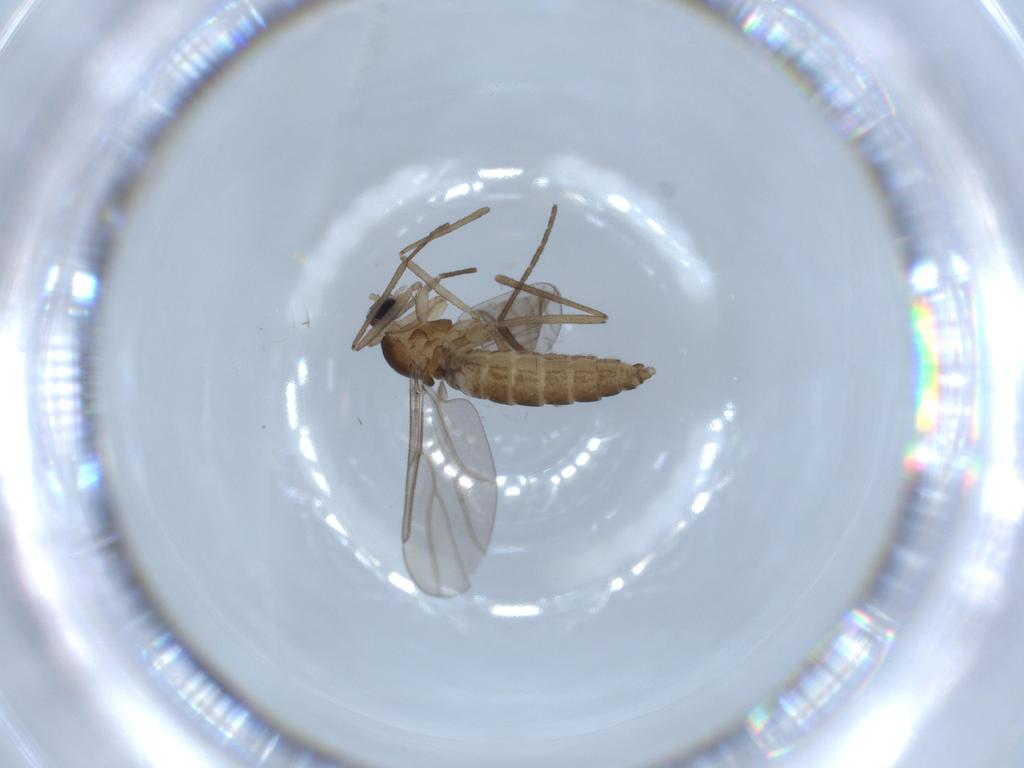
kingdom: Animalia
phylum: Arthropoda
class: Insecta
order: Diptera
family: Cecidomyiidae
